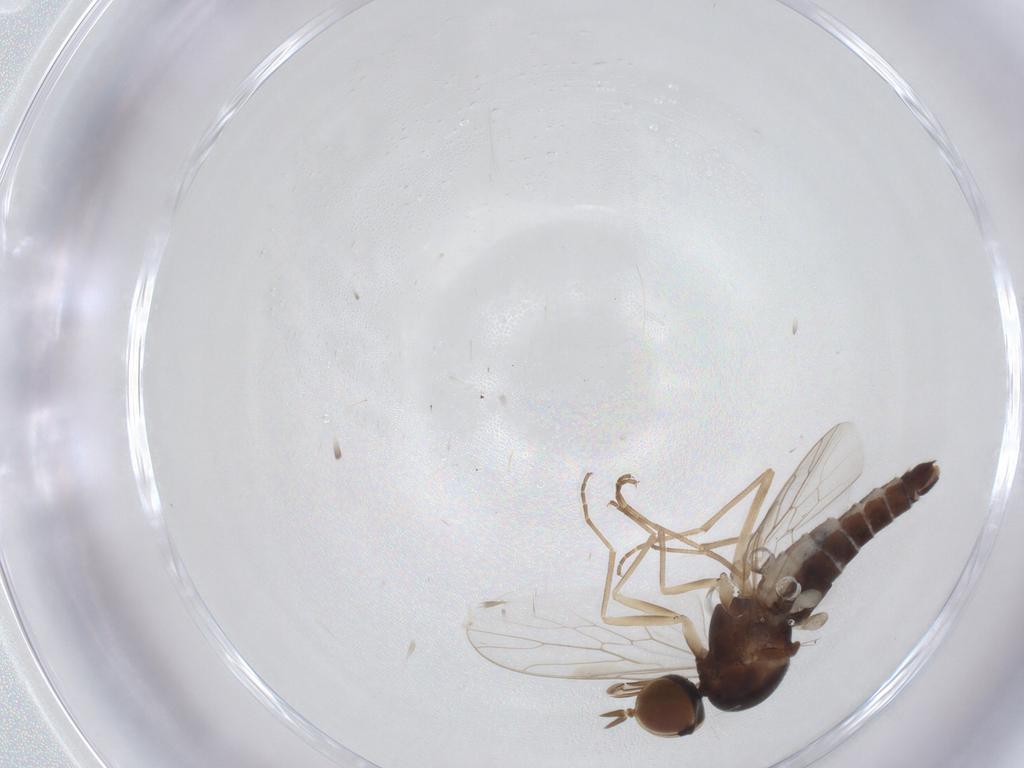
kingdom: Animalia
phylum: Arthropoda
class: Insecta
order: Diptera
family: Scenopinidae
